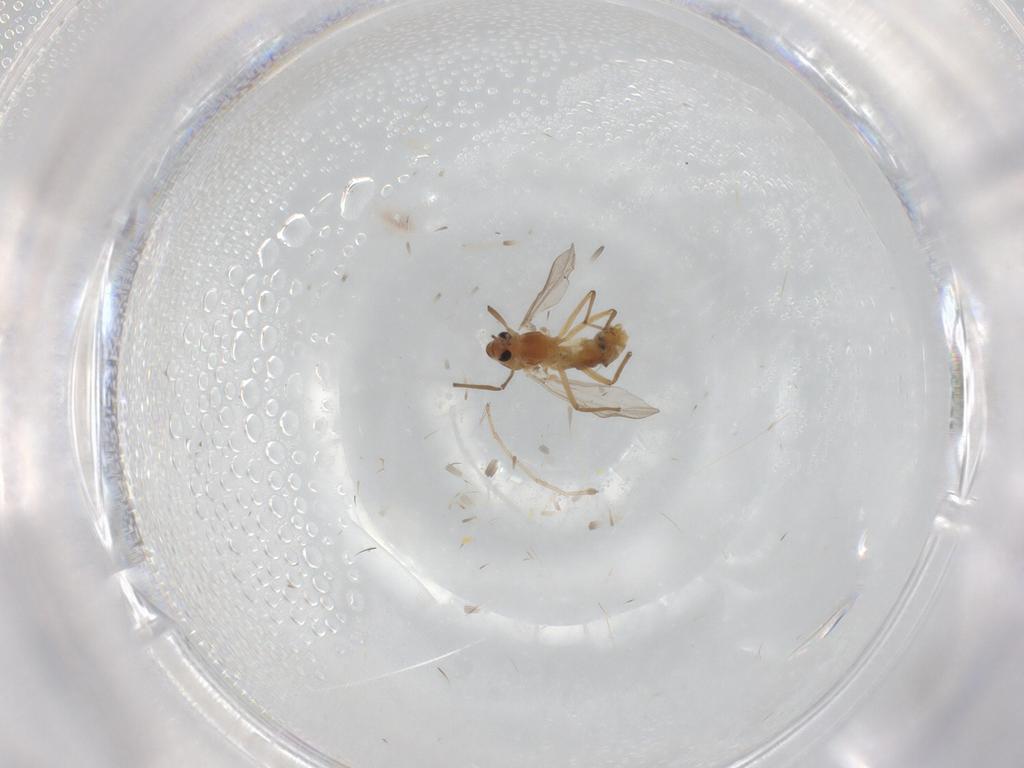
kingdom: Animalia
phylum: Arthropoda
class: Insecta
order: Diptera
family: Chironomidae
